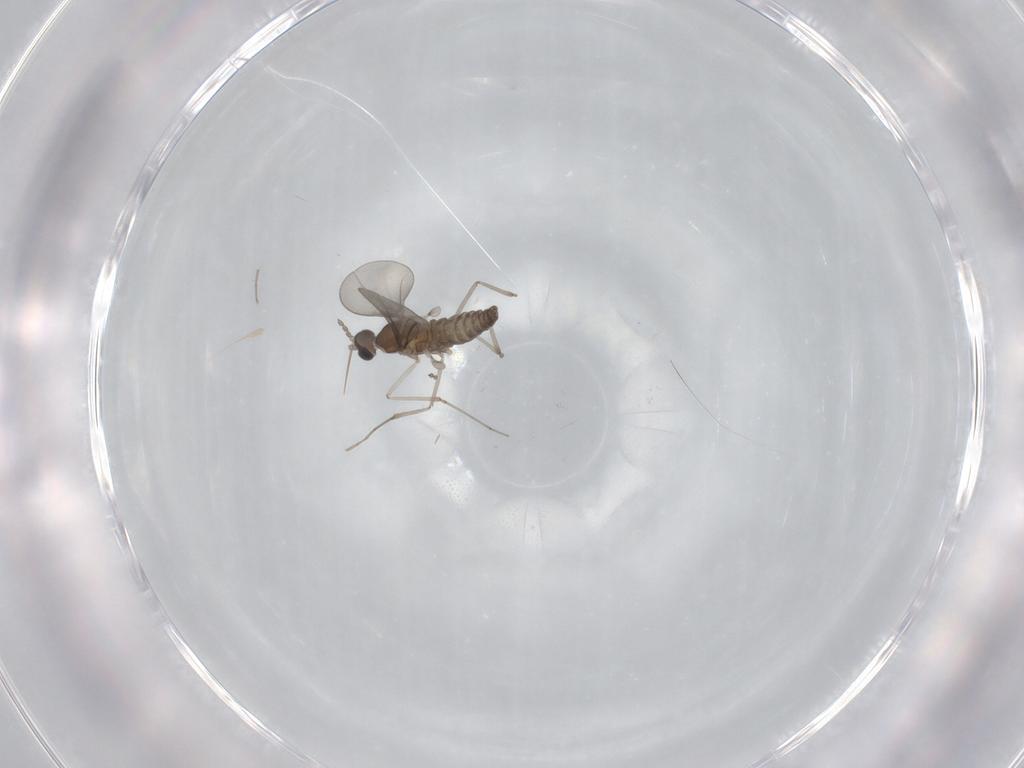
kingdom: Animalia
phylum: Arthropoda
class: Insecta
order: Diptera
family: Cecidomyiidae
